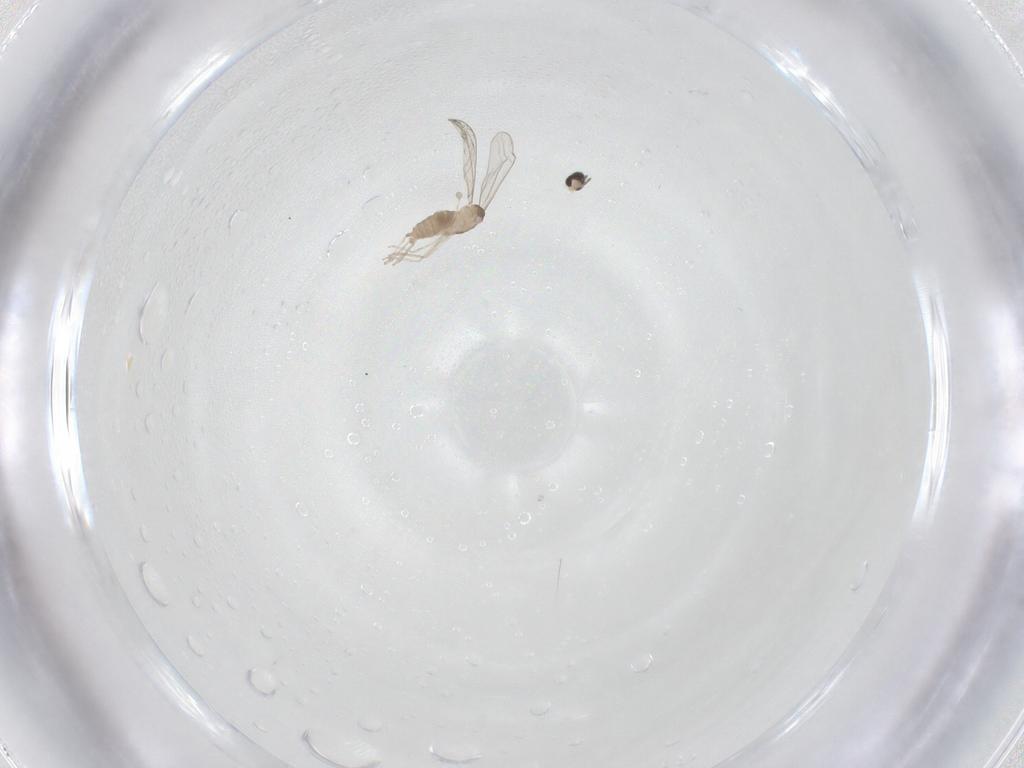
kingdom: Animalia
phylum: Arthropoda
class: Insecta
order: Diptera
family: Cecidomyiidae
